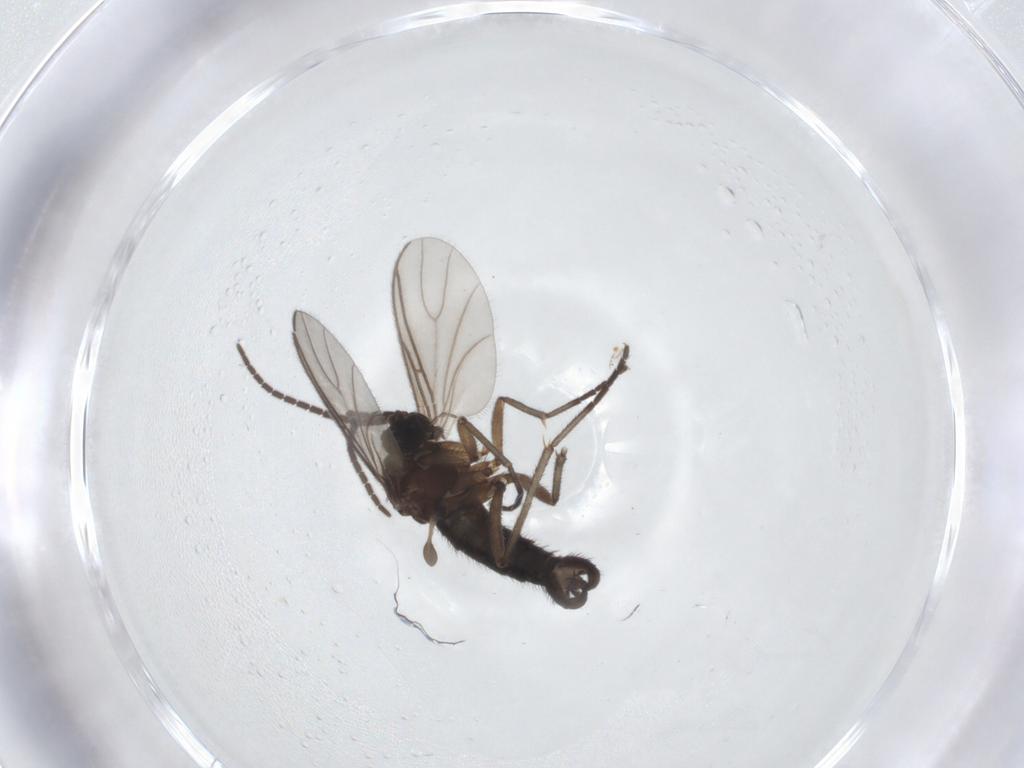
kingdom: Animalia
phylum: Arthropoda
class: Insecta
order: Diptera
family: Sciaridae
